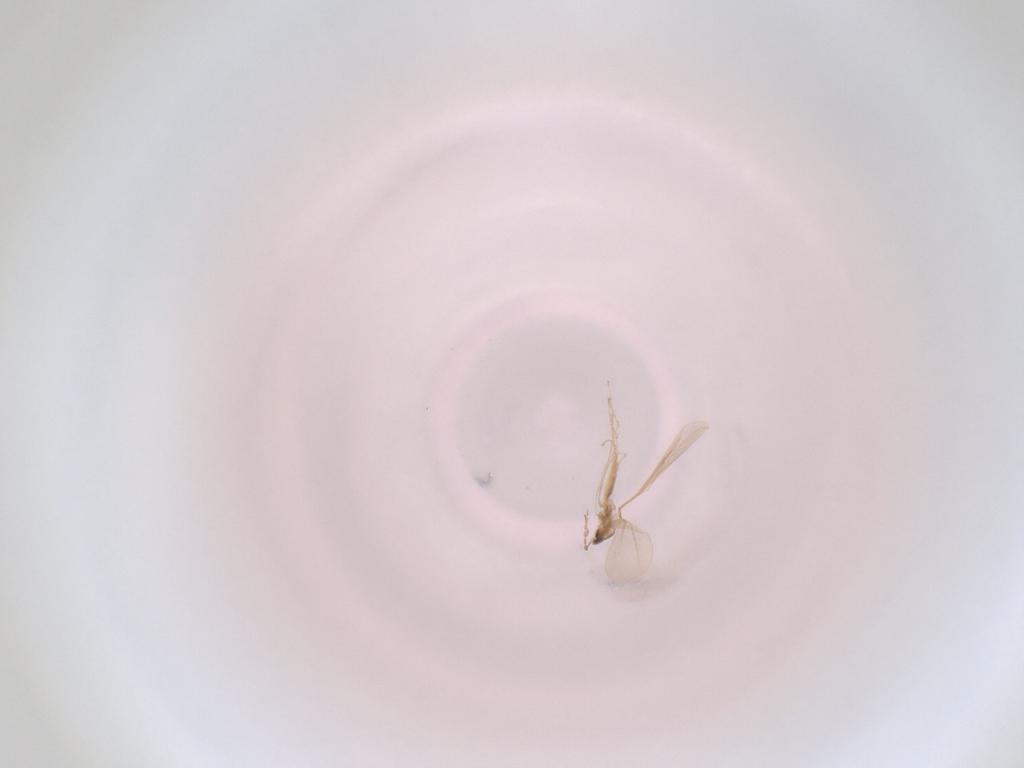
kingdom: Animalia
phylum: Arthropoda
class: Insecta
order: Diptera
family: Cecidomyiidae
